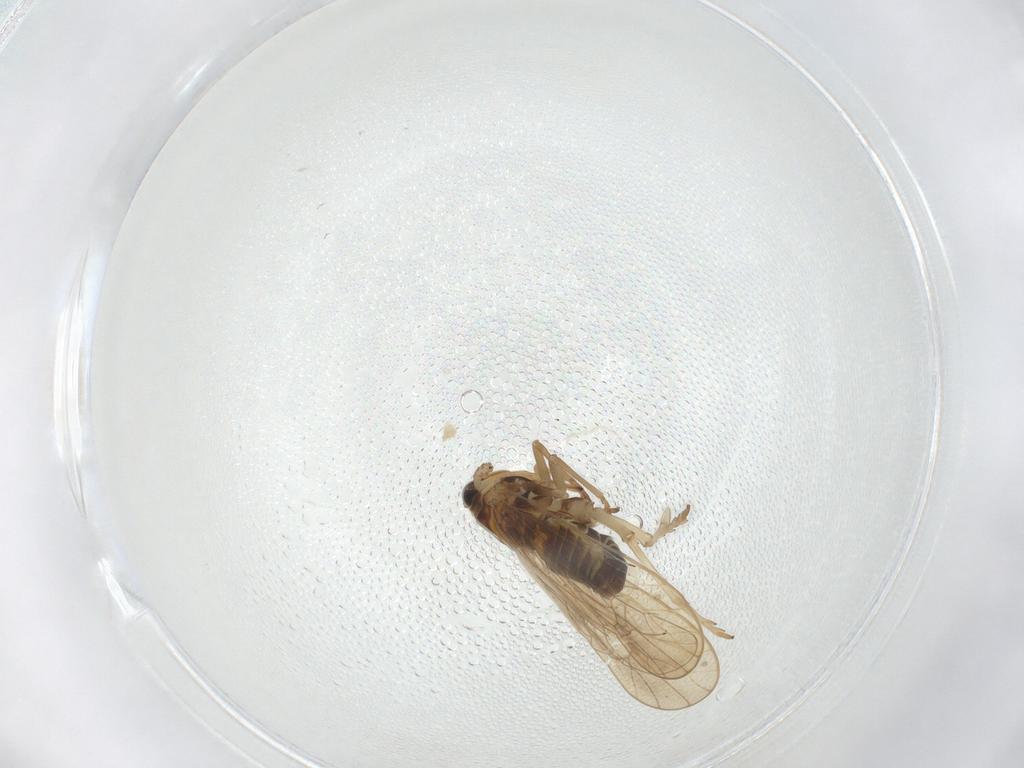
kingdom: Animalia
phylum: Arthropoda
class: Insecta
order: Hemiptera
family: Delphacidae
